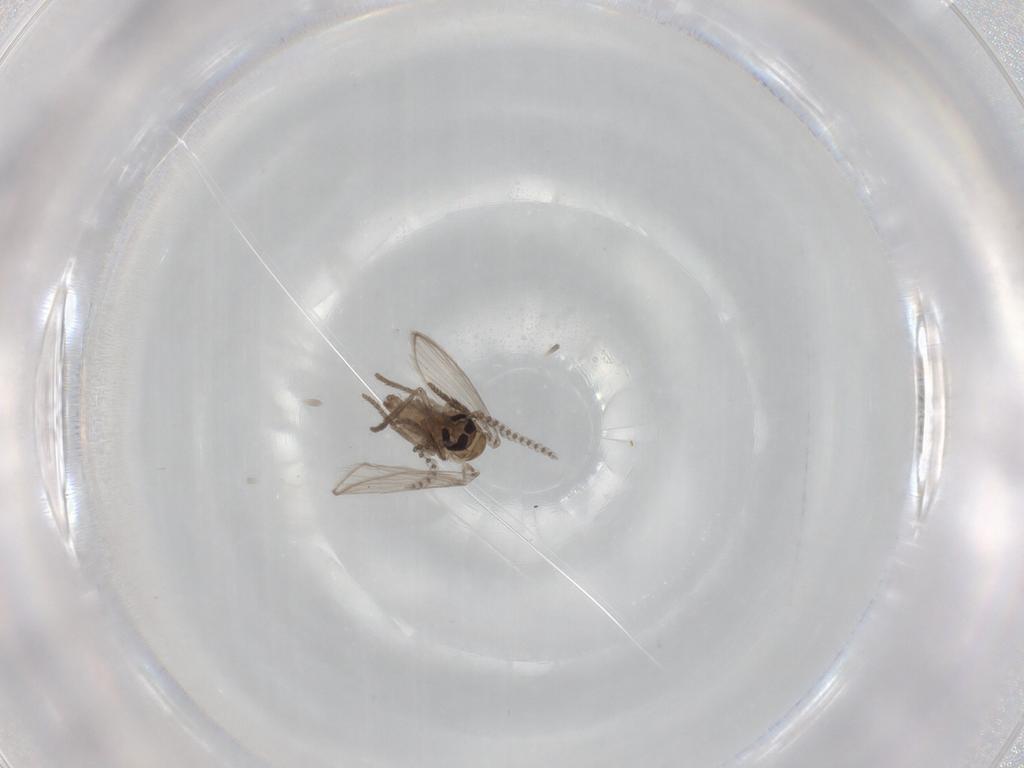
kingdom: Animalia
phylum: Arthropoda
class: Insecta
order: Diptera
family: Psychodidae
